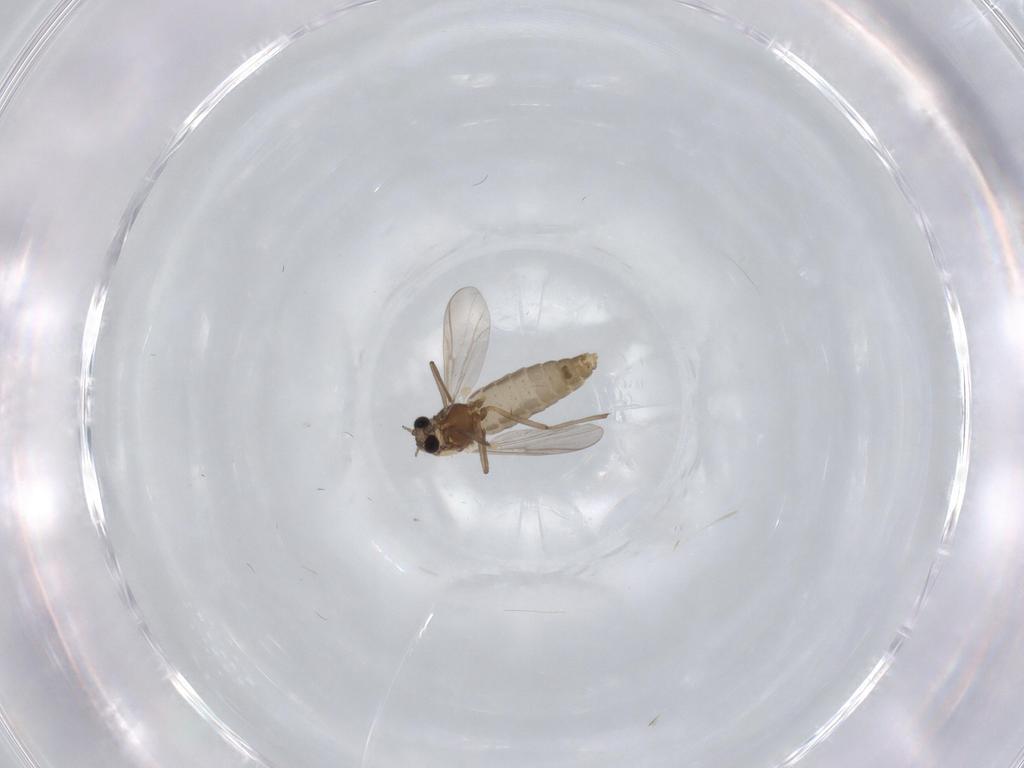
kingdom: Animalia
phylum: Arthropoda
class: Insecta
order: Diptera
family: Chironomidae
